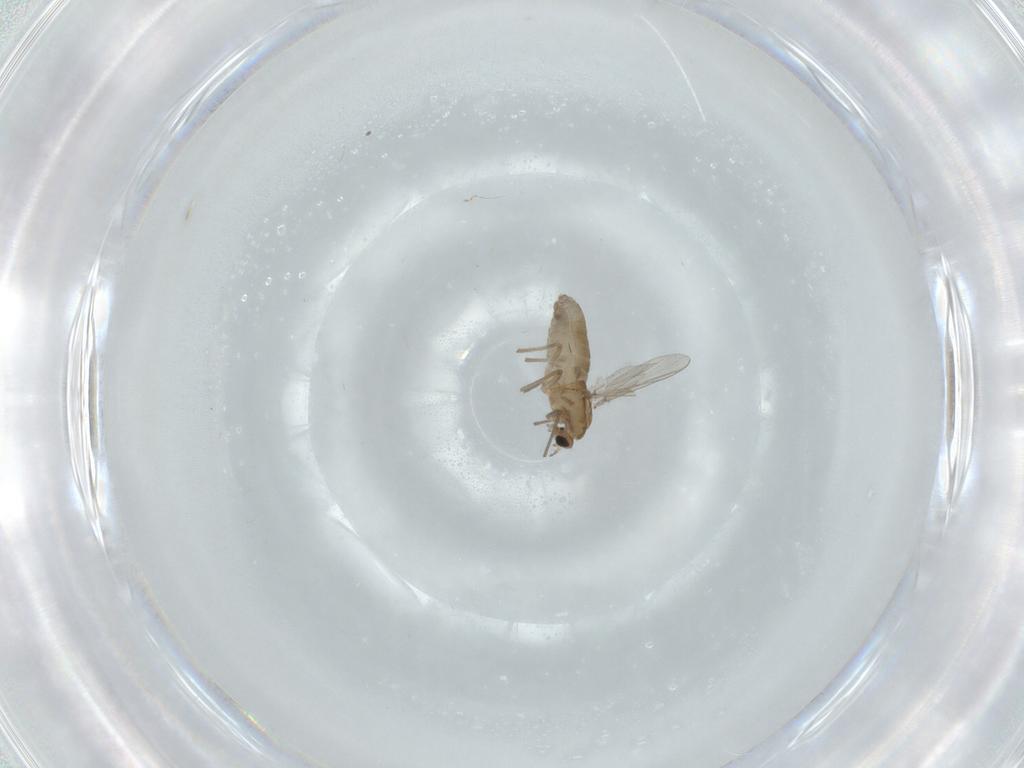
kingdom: Animalia
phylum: Arthropoda
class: Insecta
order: Diptera
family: Chironomidae
